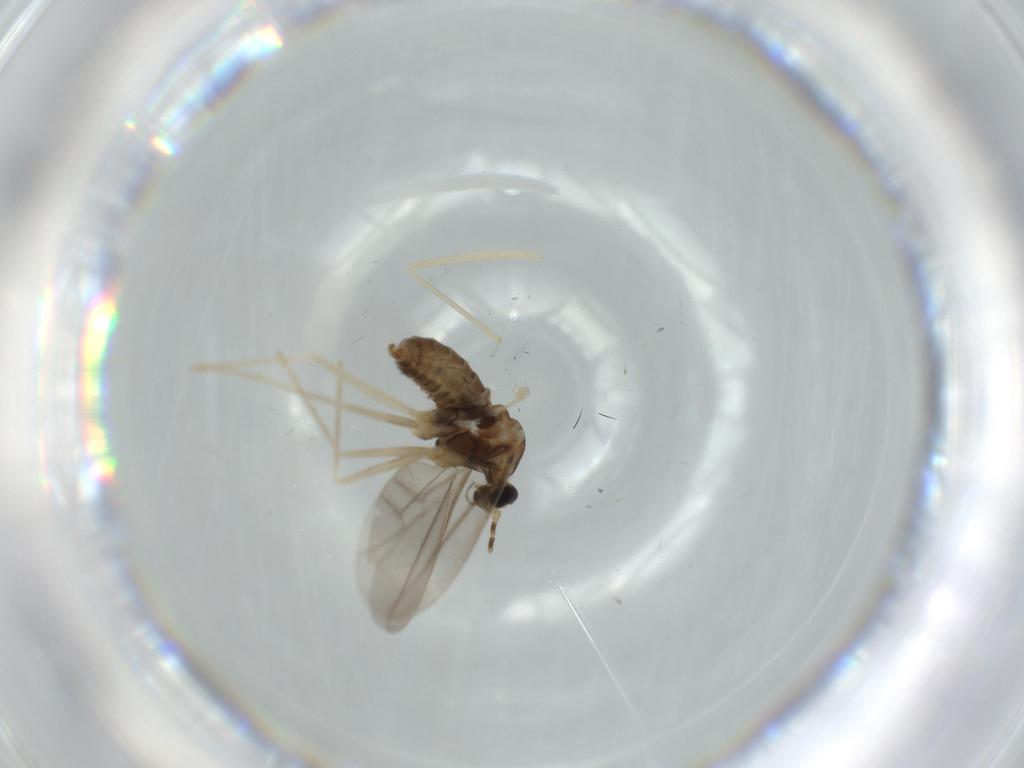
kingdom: Animalia
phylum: Arthropoda
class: Insecta
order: Diptera
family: Cecidomyiidae
